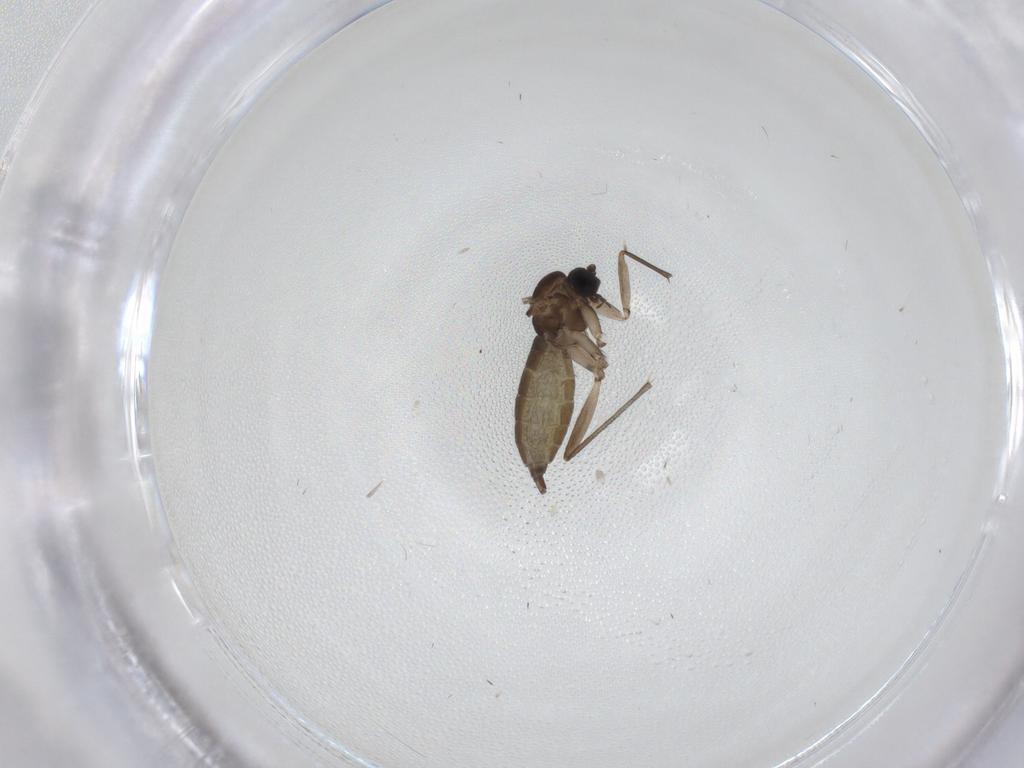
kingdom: Animalia
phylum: Arthropoda
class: Insecta
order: Diptera
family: Sciaridae
